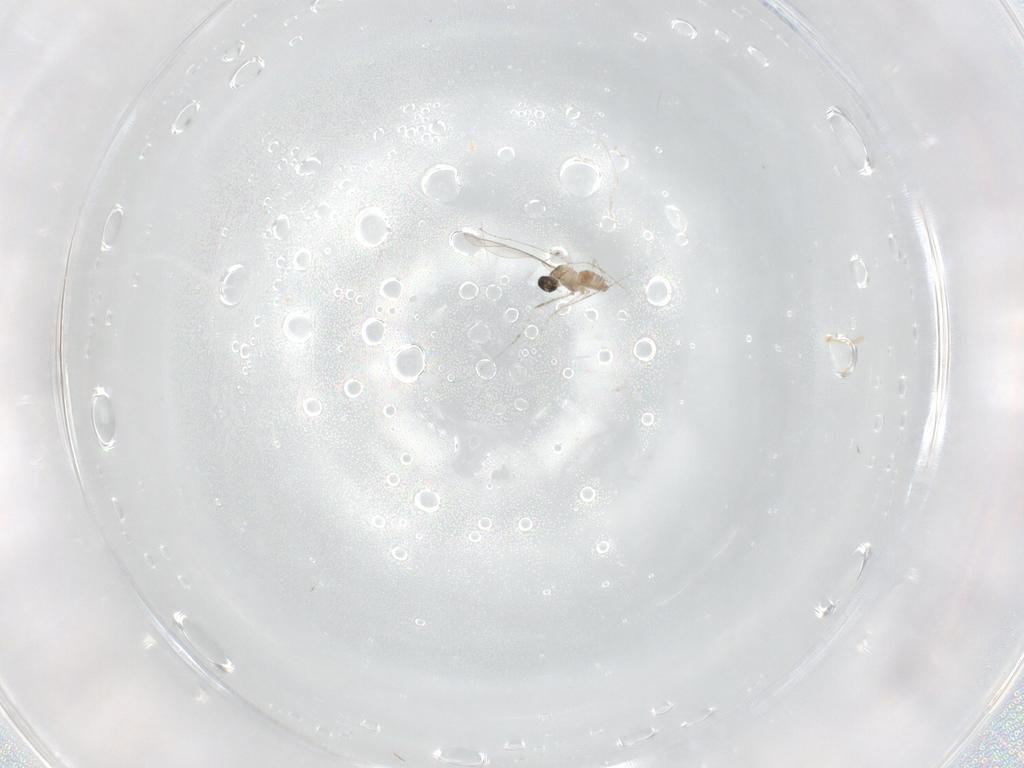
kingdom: Animalia
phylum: Arthropoda
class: Insecta
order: Diptera
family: Cecidomyiidae
